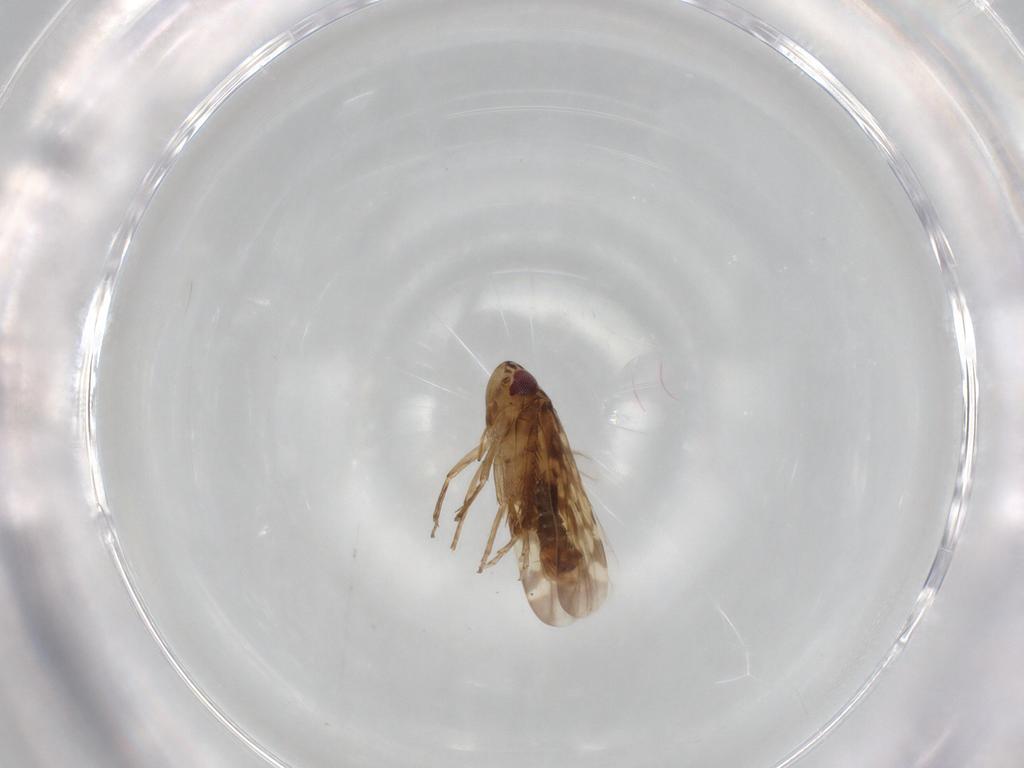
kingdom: Animalia
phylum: Arthropoda
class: Insecta
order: Hemiptera
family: Cicadellidae
